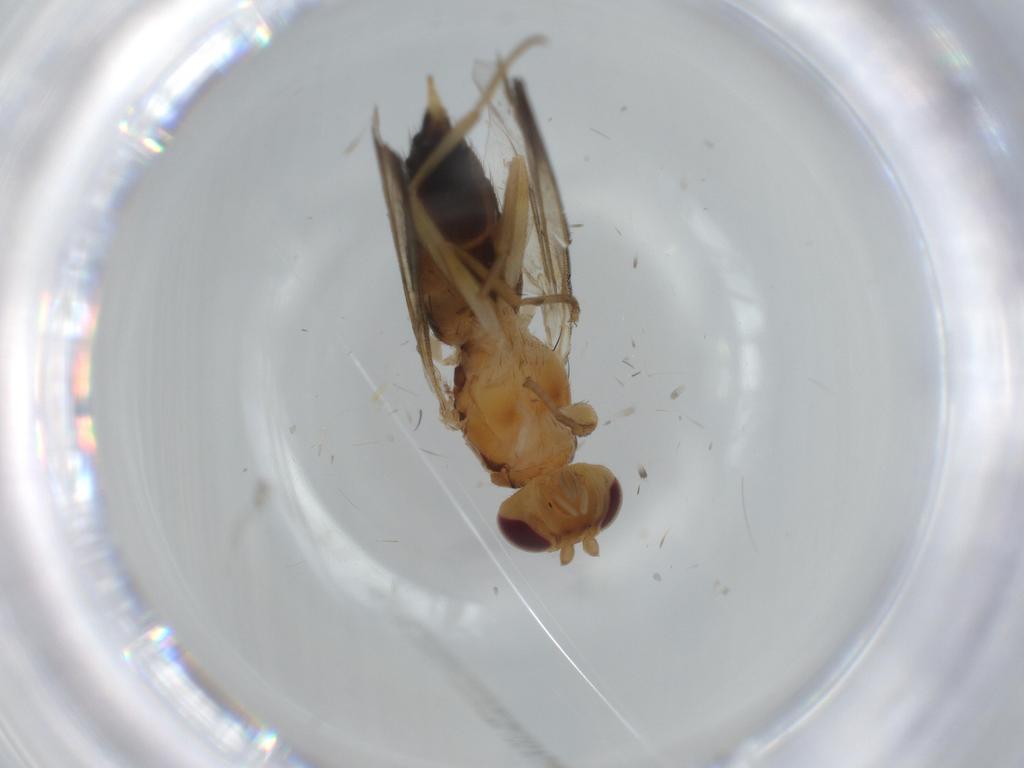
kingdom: Animalia
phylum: Arthropoda
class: Insecta
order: Diptera
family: Clusiidae
